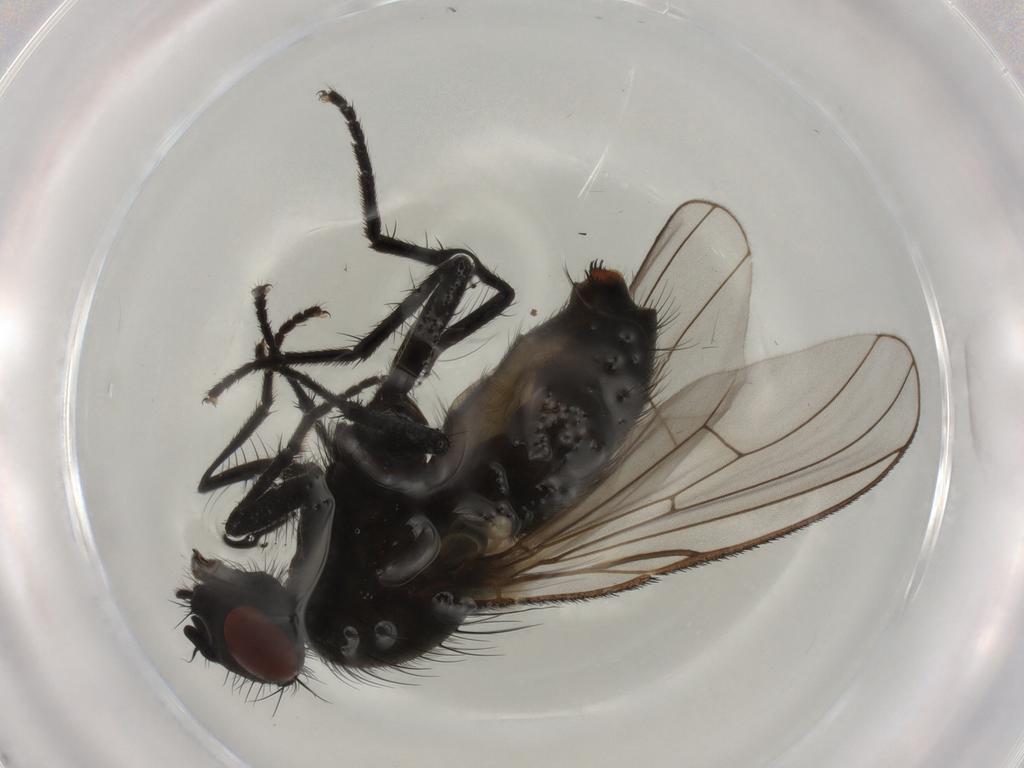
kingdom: Animalia
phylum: Arthropoda
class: Insecta
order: Diptera
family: Muscidae
